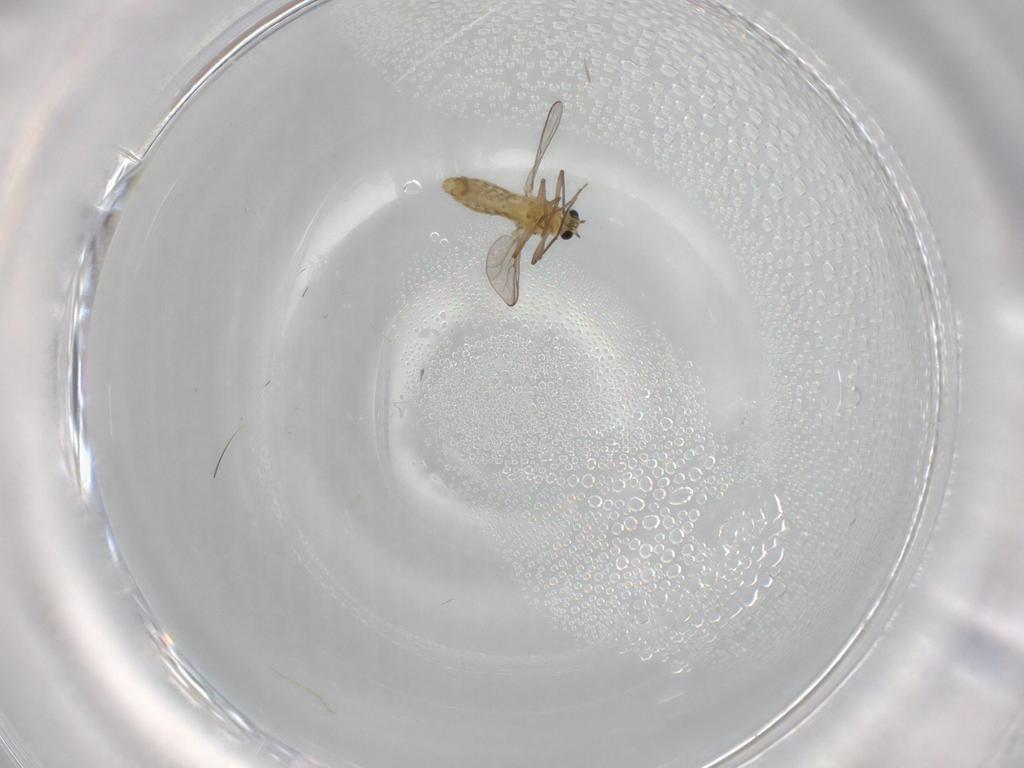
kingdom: Animalia
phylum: Arthropoda
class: Insecta
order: Diptera
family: Chironomidae
